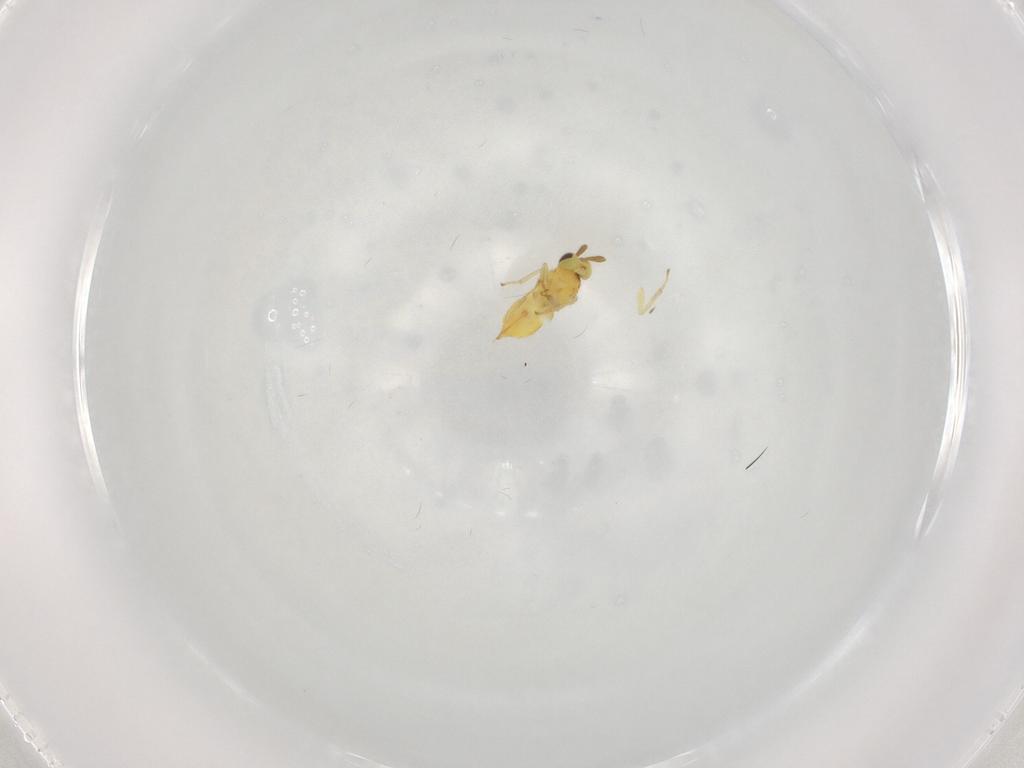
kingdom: Animalia
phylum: Arthropoda
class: Insecta
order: Hymenoptera
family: Aphelinidae
